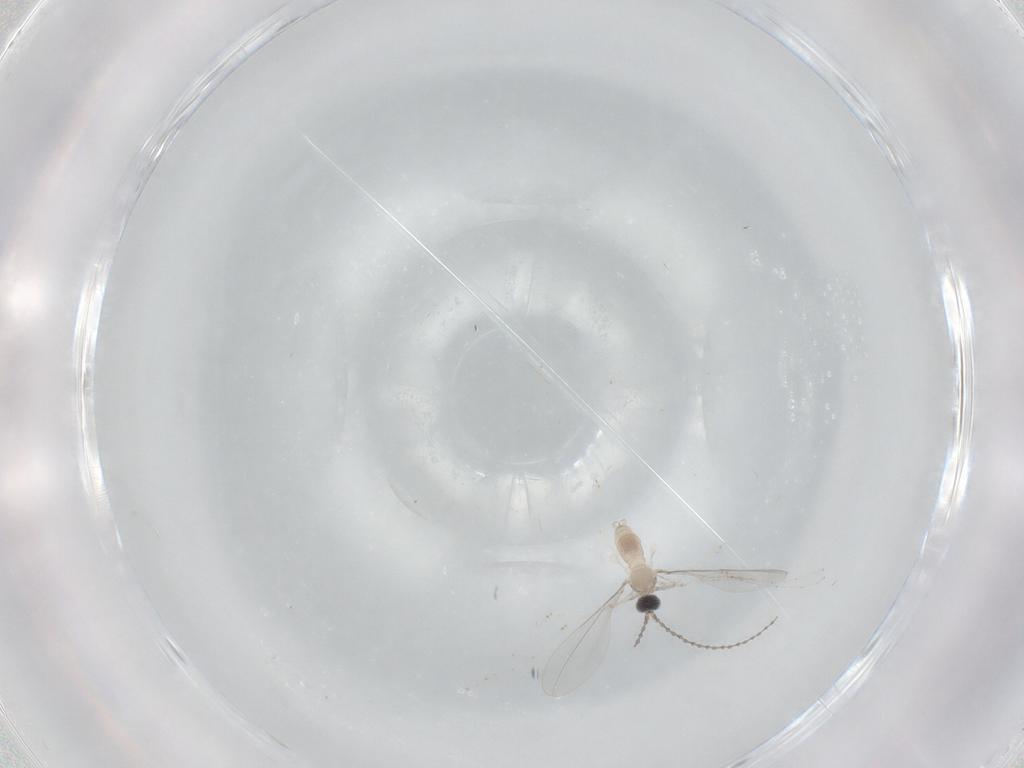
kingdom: Animalia
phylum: Arthropoda
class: Insecta
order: Diptera
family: Cecidomyiidae
